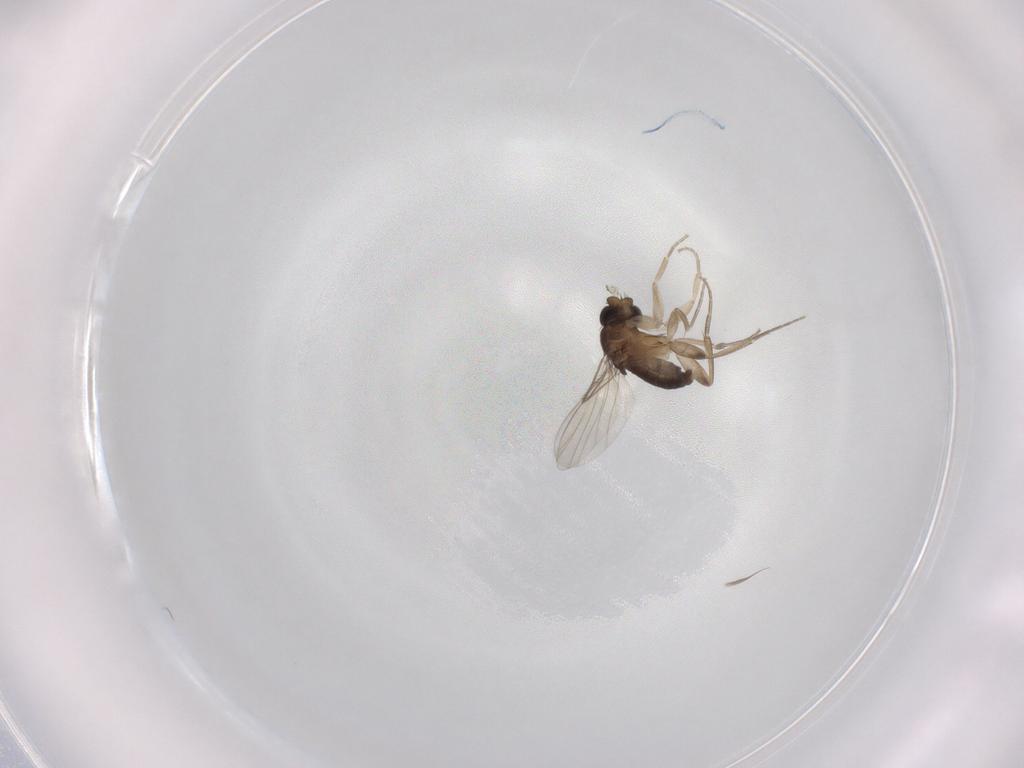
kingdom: Animalia
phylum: Arthropoda
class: Insecta
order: Diptera
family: Phoridae
